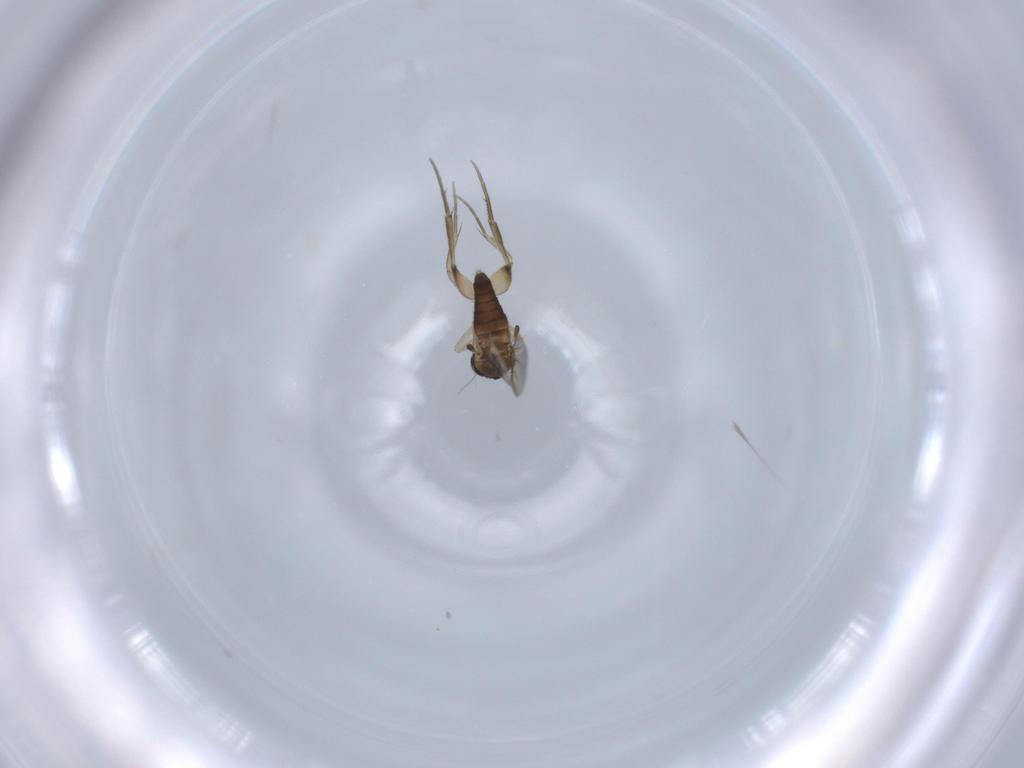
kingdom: Animalia
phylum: Arthropoda
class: Insecta
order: Diptera
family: Phoridae
